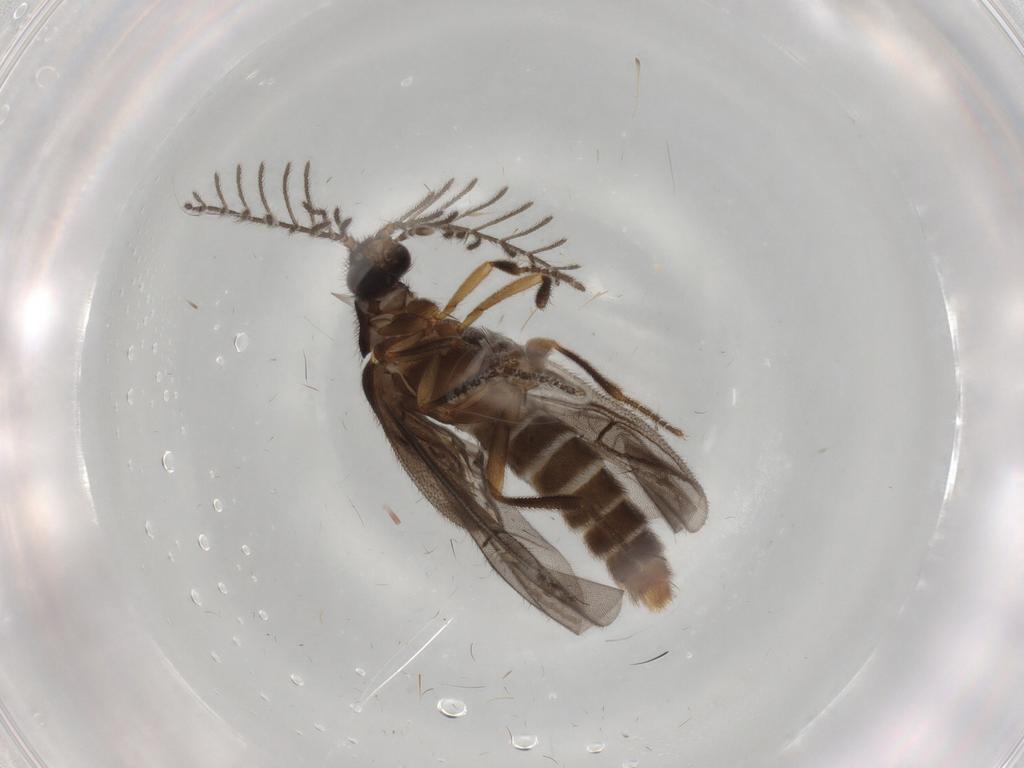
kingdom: Animalia
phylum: Arthropoda
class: Insecta
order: Coleoptera
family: Chrysomelidae
